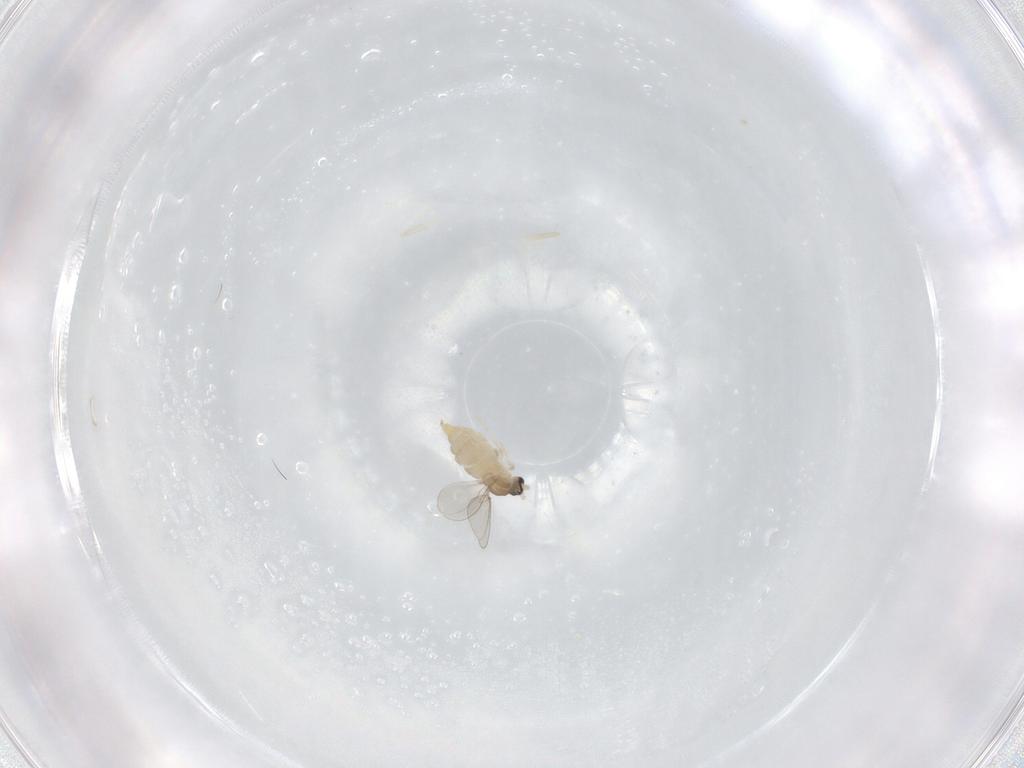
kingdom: Animalia
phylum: Arthropoda
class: Insecta
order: Diptera
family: Cecidomyiidae
